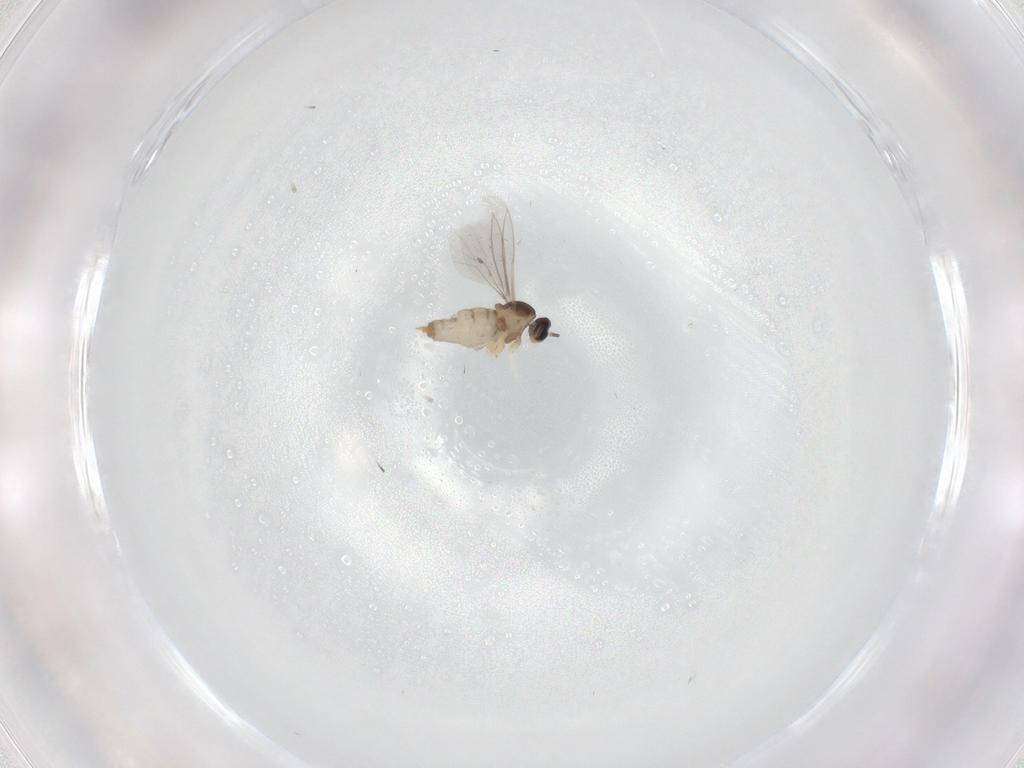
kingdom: Animalia
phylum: Arthropoda
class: Insecta
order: Diptera
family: Cecidomyiidae
